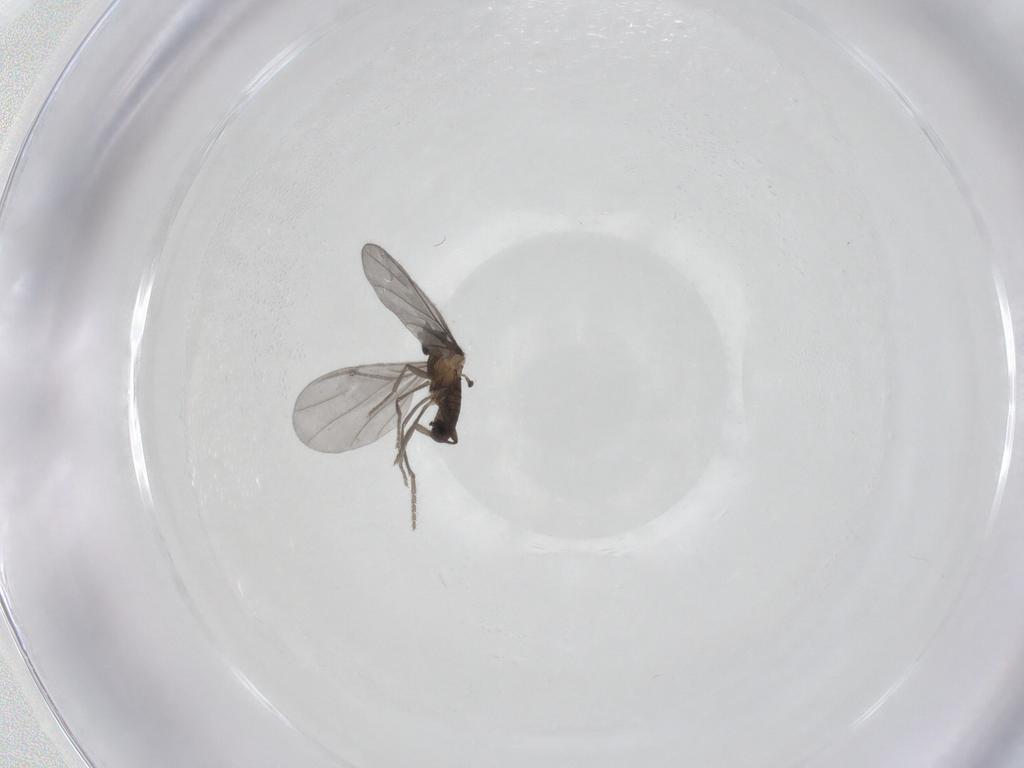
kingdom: Animalia
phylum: Arthropoda
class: Insecta
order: Diptera
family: Phoridae
